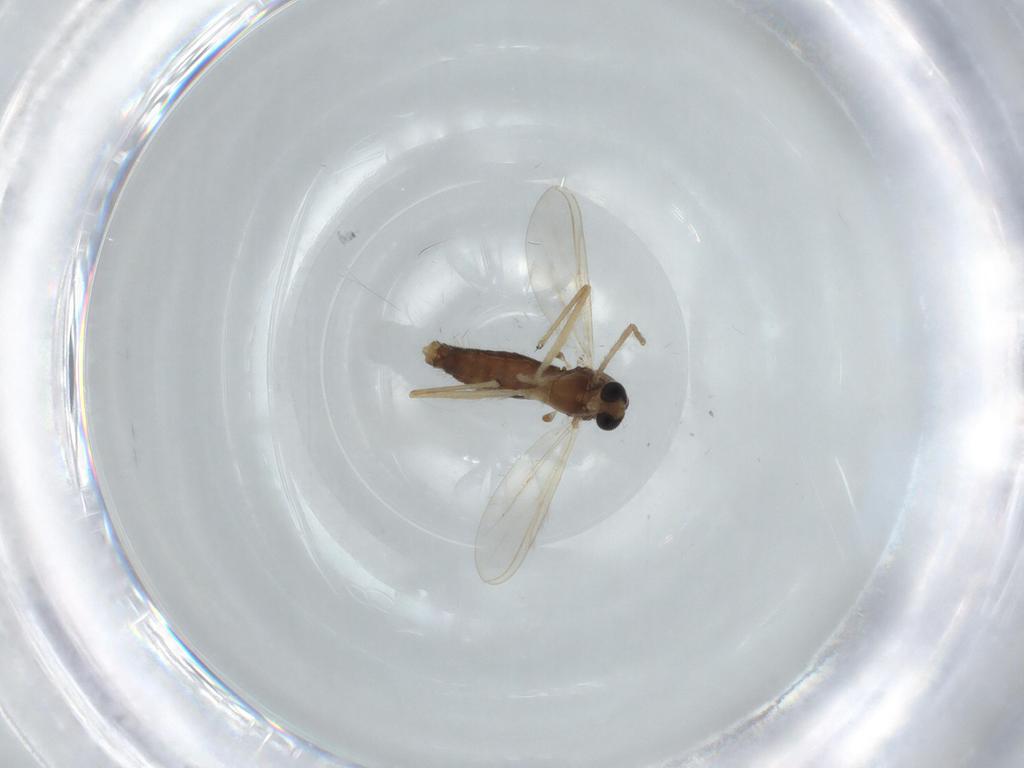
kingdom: Animalia
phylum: Arthropoda
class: Insecta
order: Diptera
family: Chironomidae
